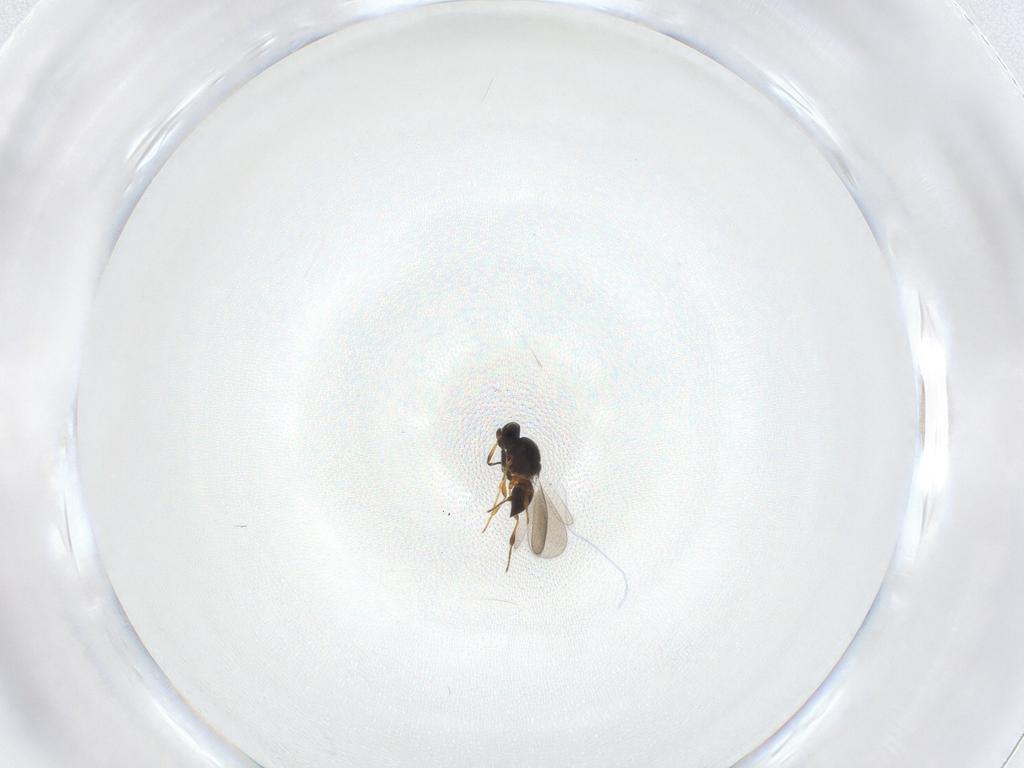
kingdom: Animalia
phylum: Arthropoda
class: Insecta
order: Hymenoptera
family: Platygastridae
